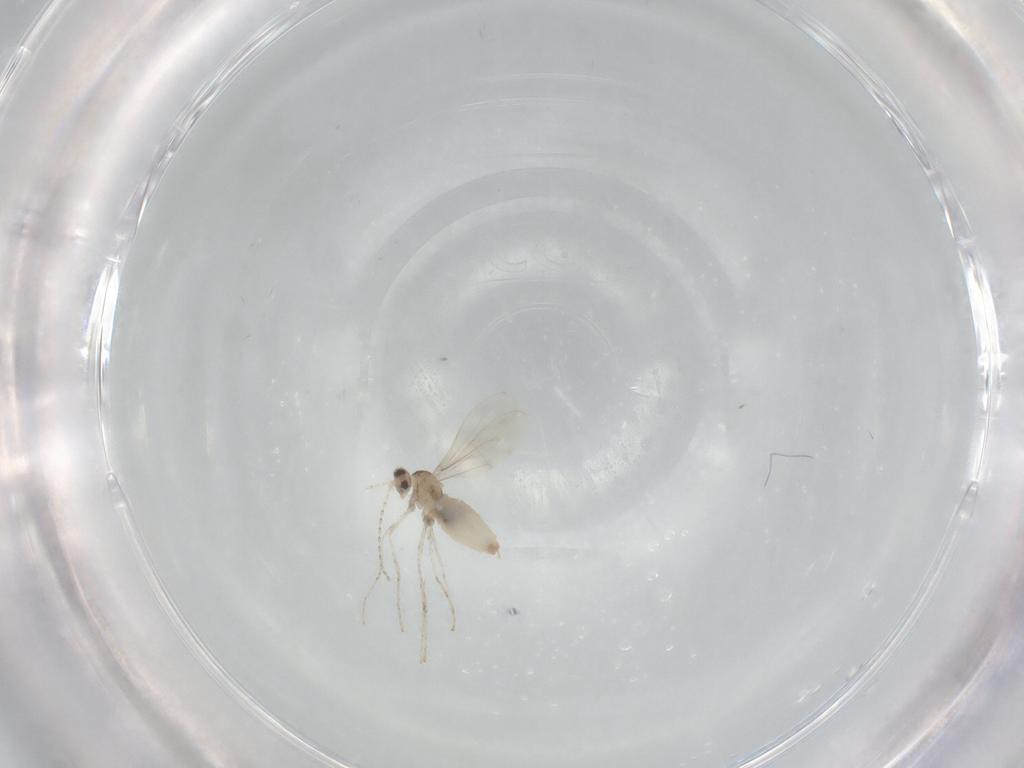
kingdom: Animalia
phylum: Arthropoda
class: Insecta
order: Diptera
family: Cecidomyiidae
